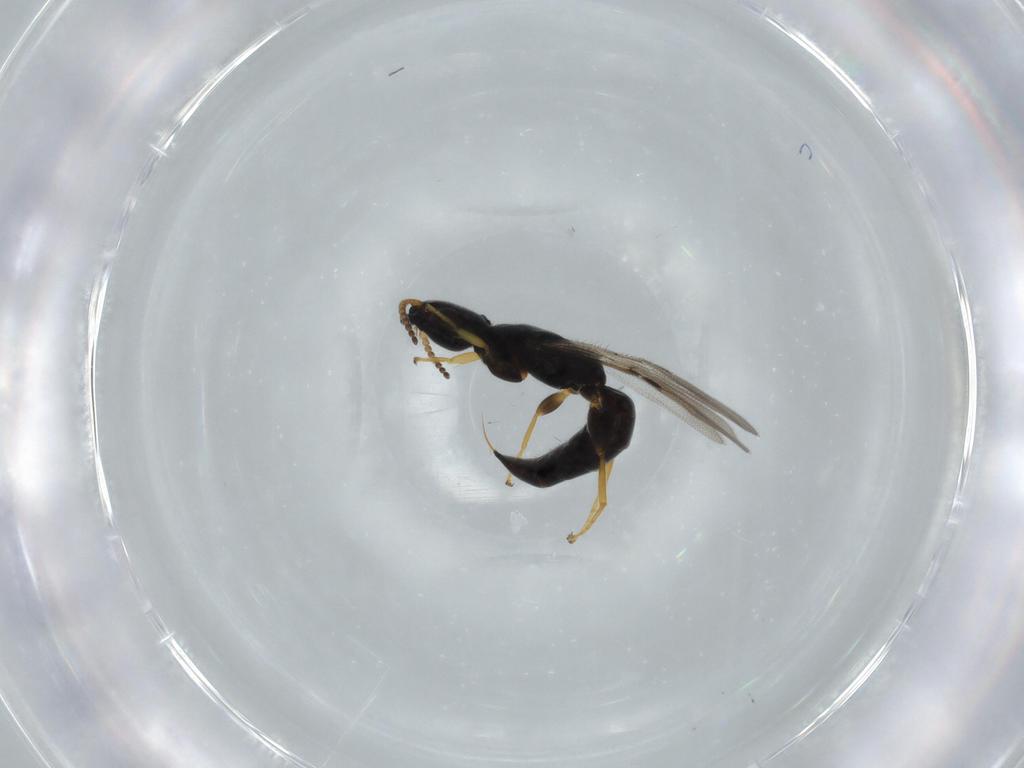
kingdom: Animalia
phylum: Arthropoda
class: Insecta
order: Hymenoptera
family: Bethylidae
